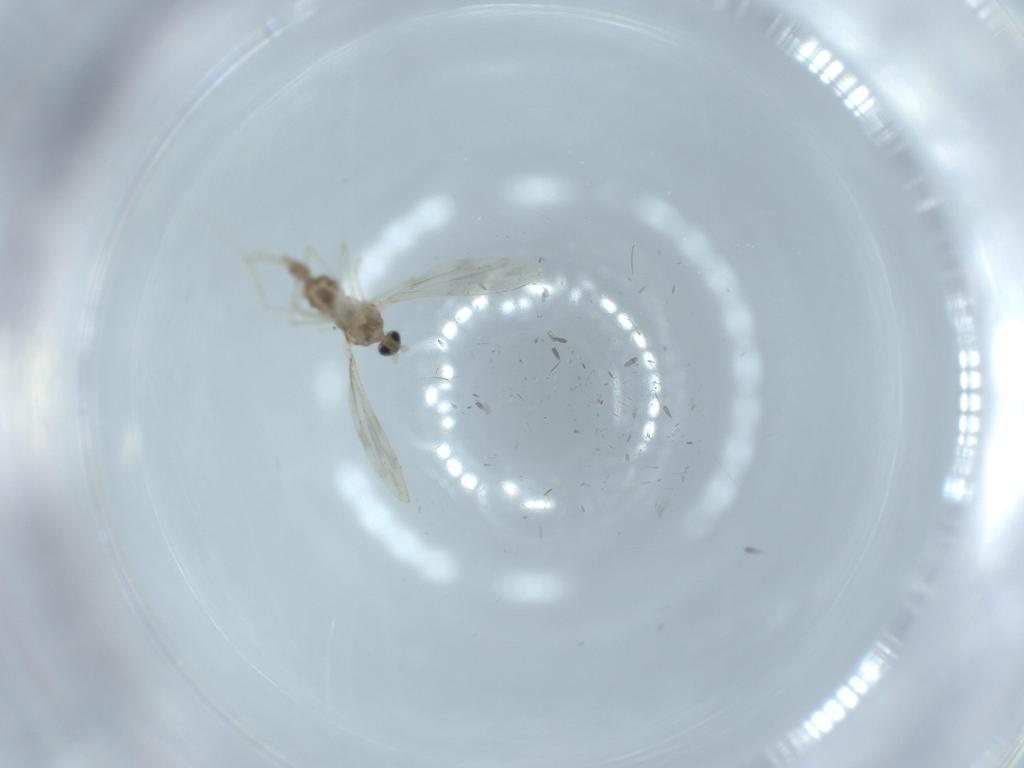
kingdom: Animalia
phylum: Arthropoda
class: Insecta
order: Diptera
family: Cecidomyiidae
